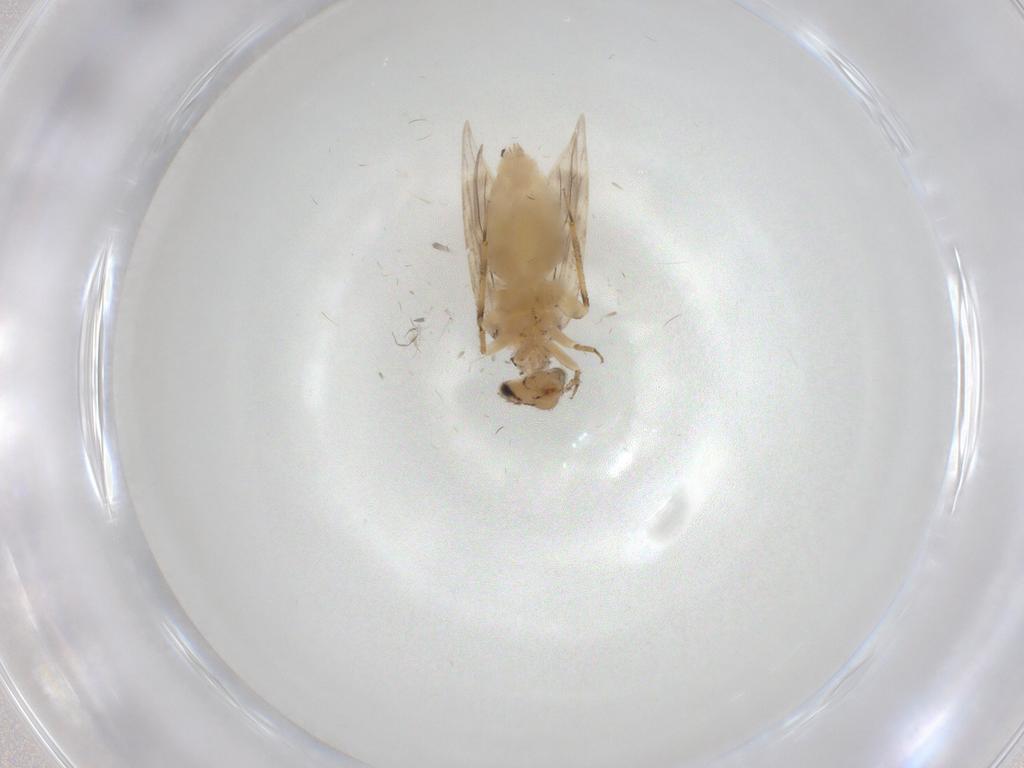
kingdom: Animalia
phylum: Arthropoda
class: Insecta
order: Psocodea
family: Lepidopsocidae
